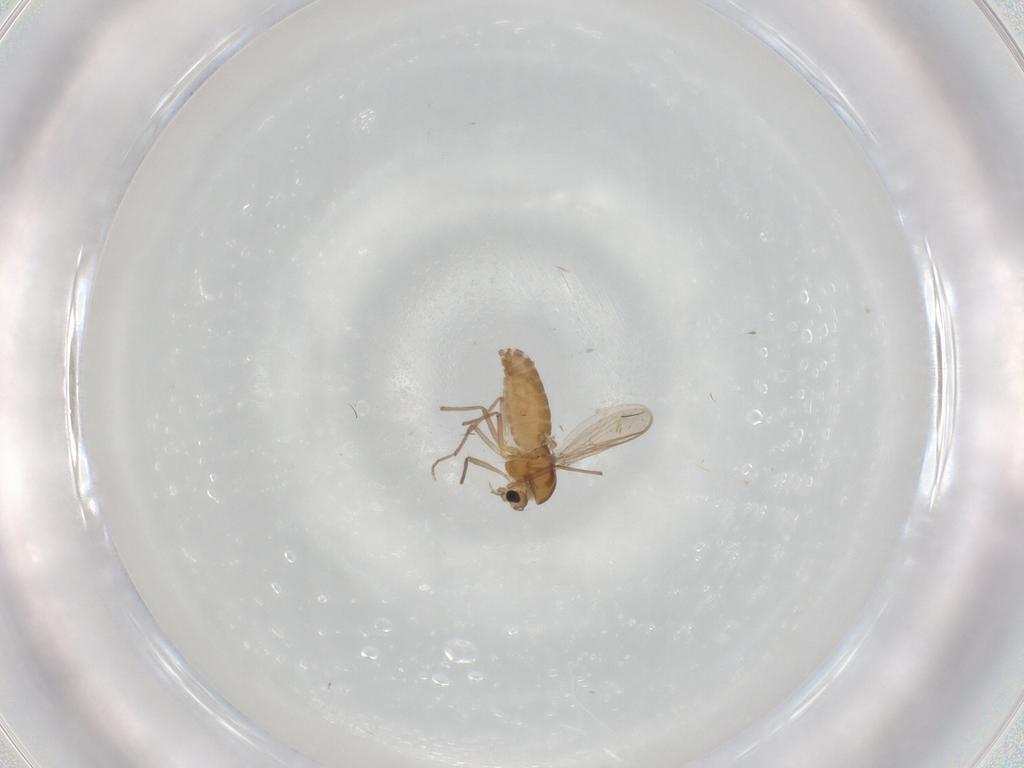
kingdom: Animalia
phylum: Arthropoda
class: Insecta
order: Diptera
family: Chironomidae
